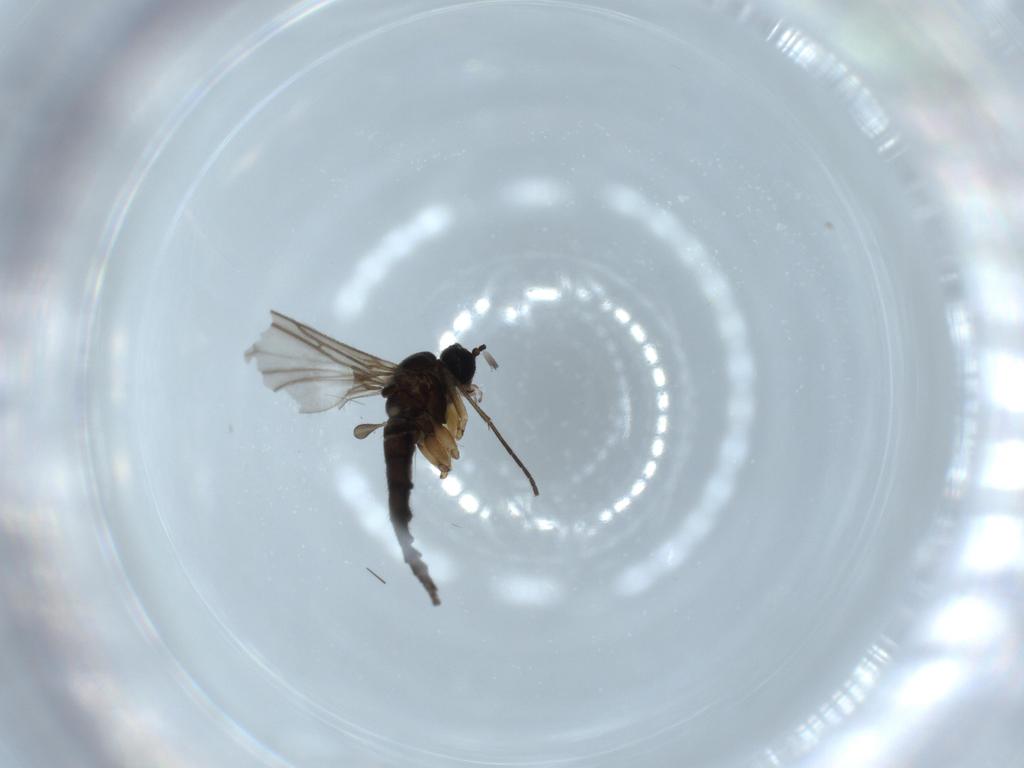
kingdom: Animalia
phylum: Arthropoda
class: Insecta
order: Diptera
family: Sciaridae
